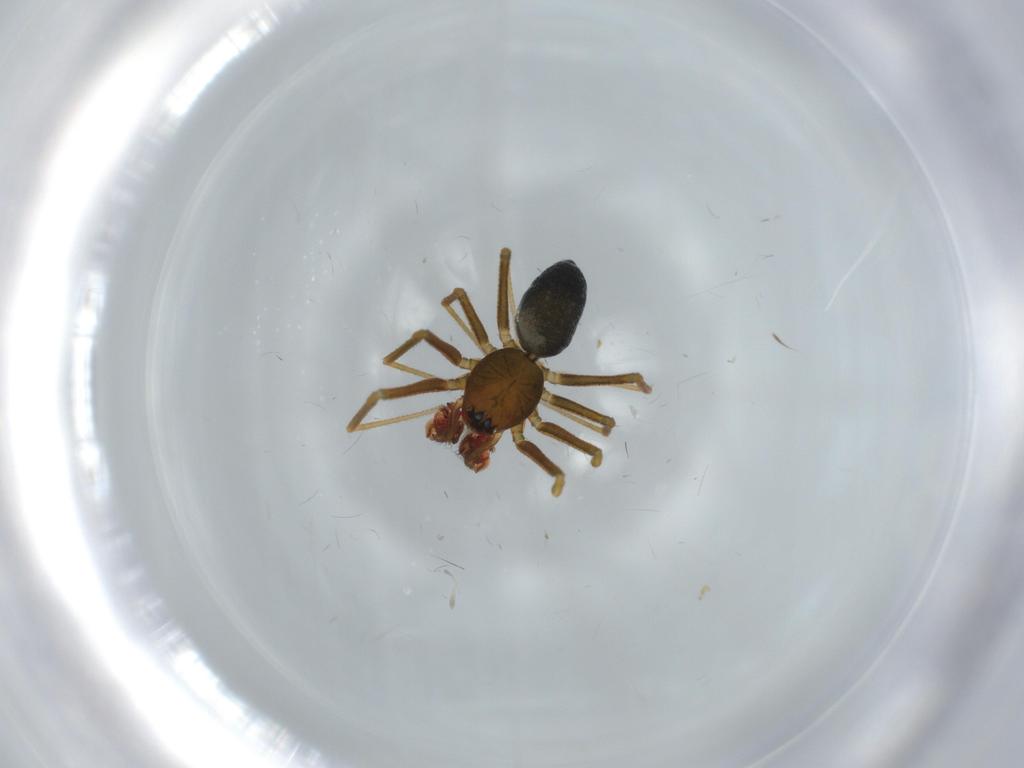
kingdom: Animalia
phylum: Arthropoda
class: Arachnida
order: Araneae
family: Linyphiidae
